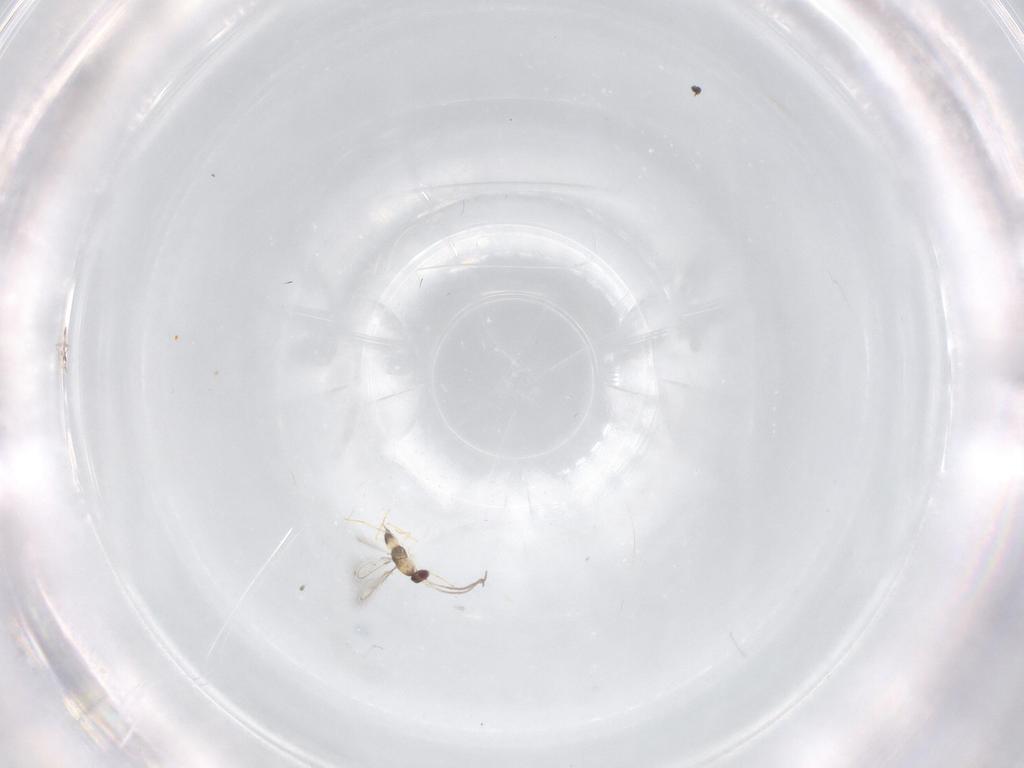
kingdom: Animalia
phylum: Arthropoda
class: Insecta
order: Hymenoptera
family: Mymaridae
